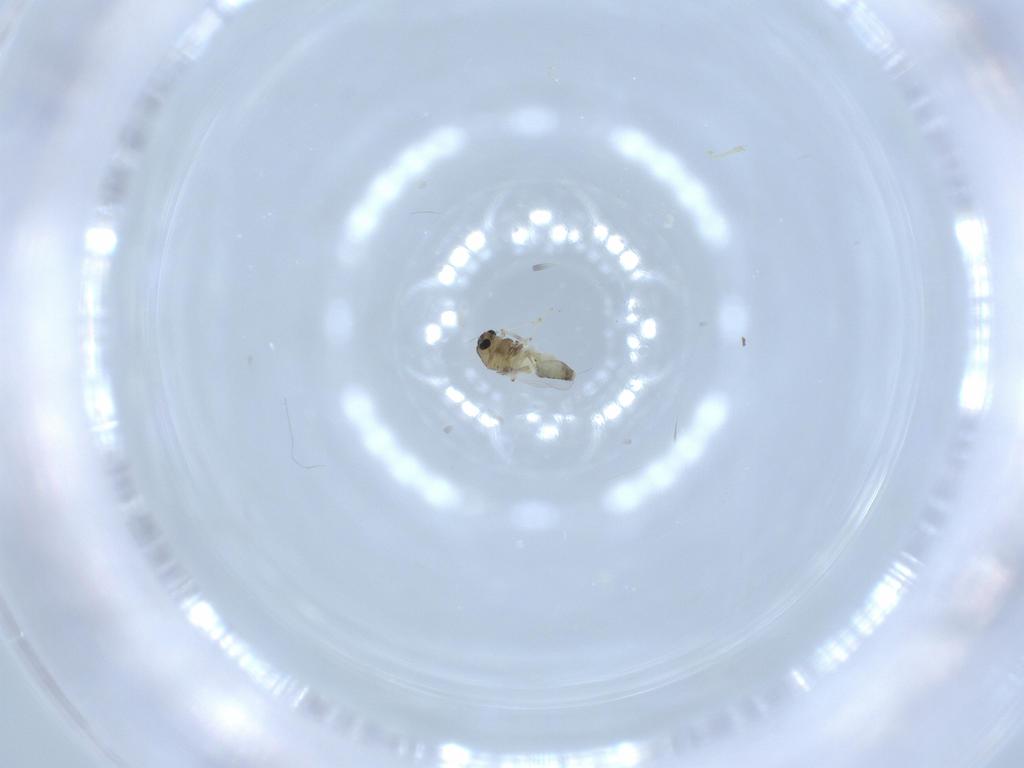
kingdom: Animalia
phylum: Arthropoda
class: Insecta
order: Diptera
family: Chironomidae
